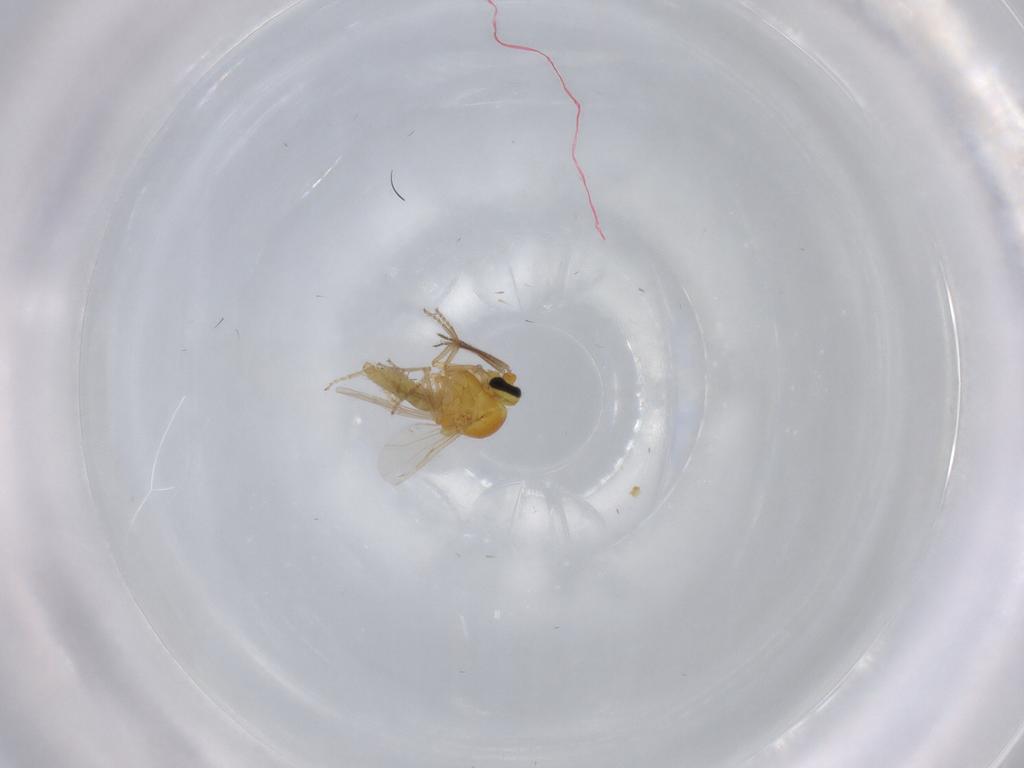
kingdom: Animalia
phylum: Arthropoda
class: Insecta
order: Diptera
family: Ceratopogonidae
